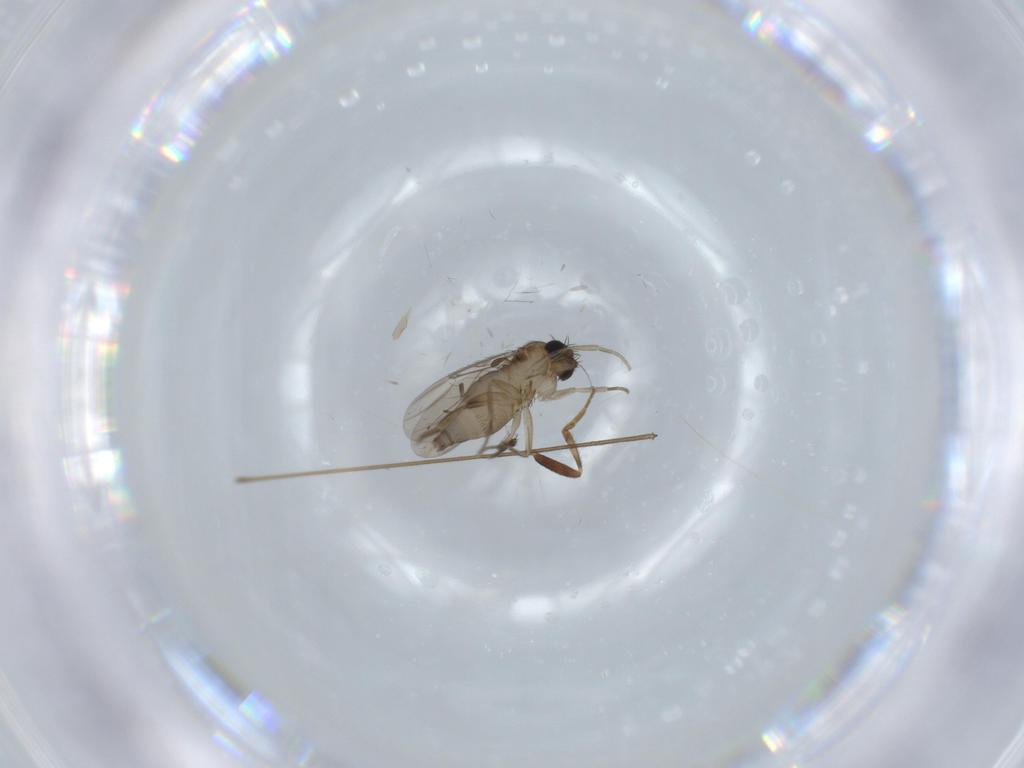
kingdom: Animalia
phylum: Arthropoda
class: Insecta
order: Diptera
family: Phoridae
